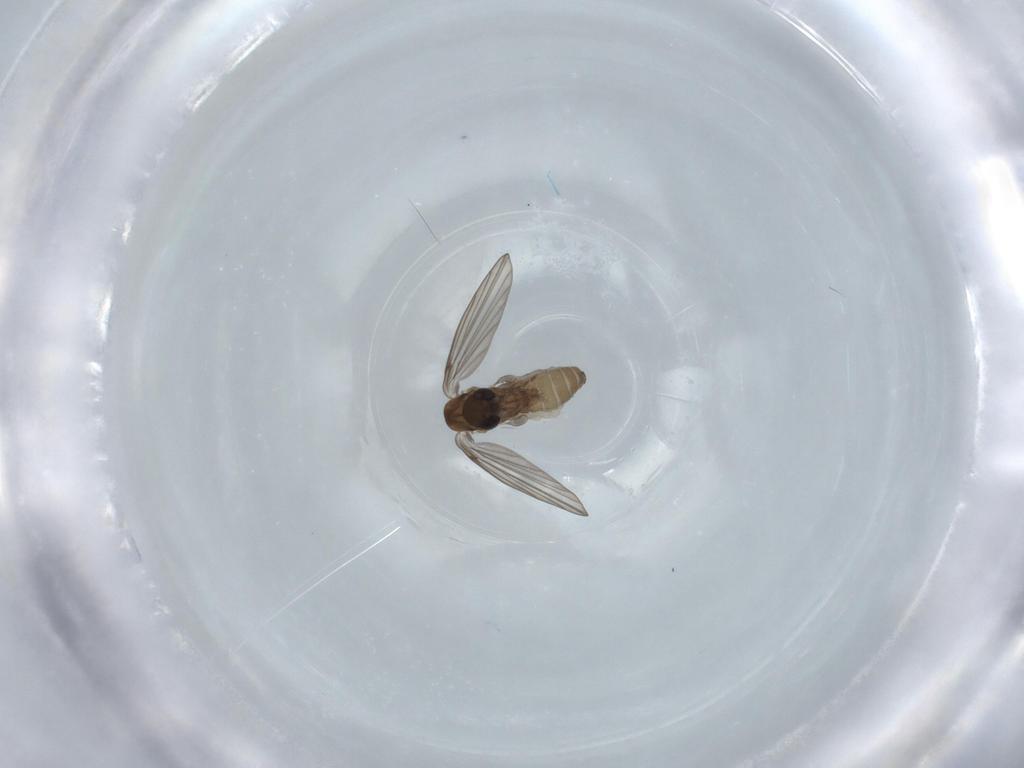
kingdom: Animalia
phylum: Arthropoda
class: Insecta
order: Diptera
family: Psychodidae
